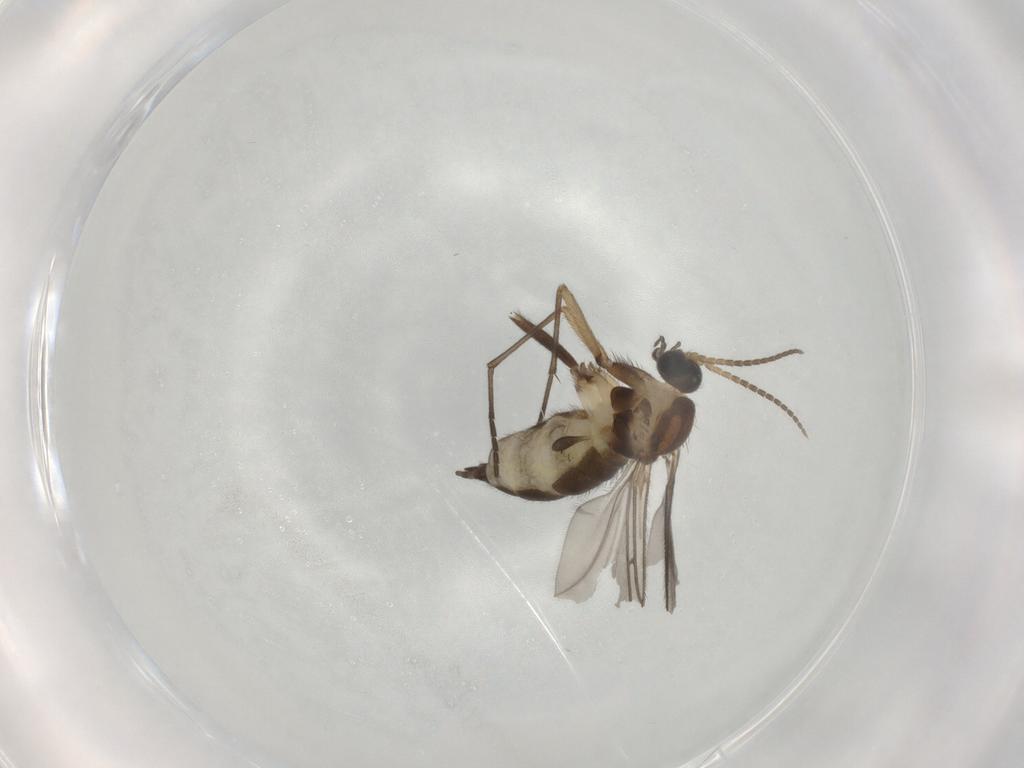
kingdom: Animalia
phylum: Arthropoda
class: Insecta
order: Diptera
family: Sciaridae
